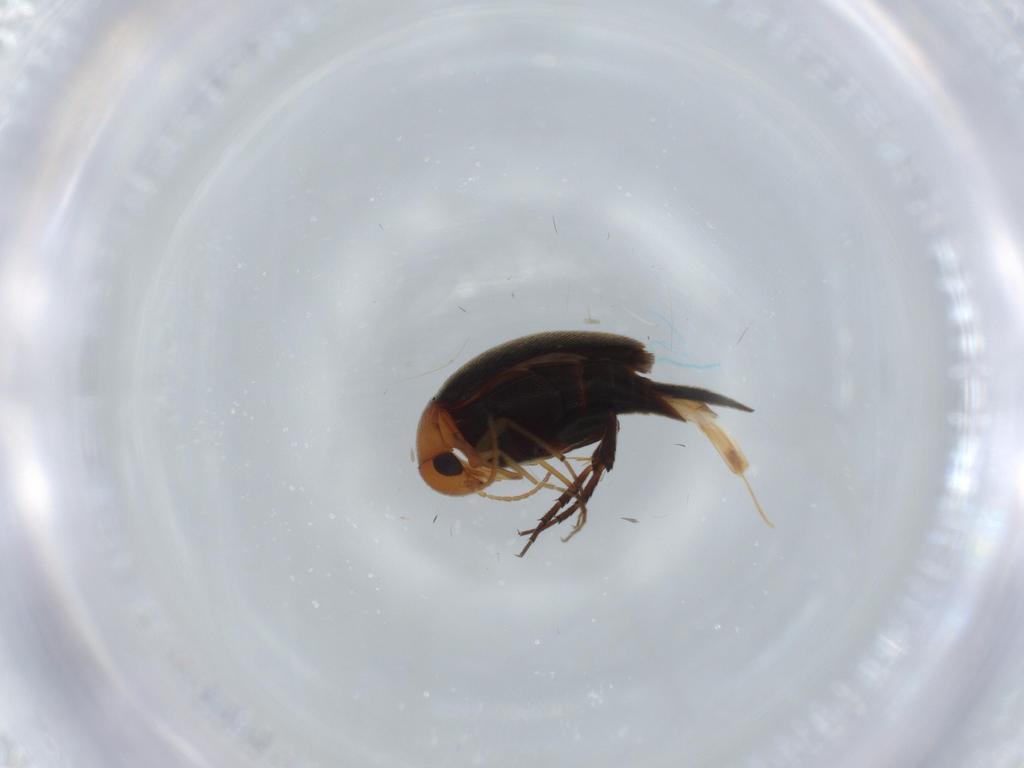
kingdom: Animalia
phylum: Arthropoda
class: Insecta
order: Coleoptera
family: Mordellidae
